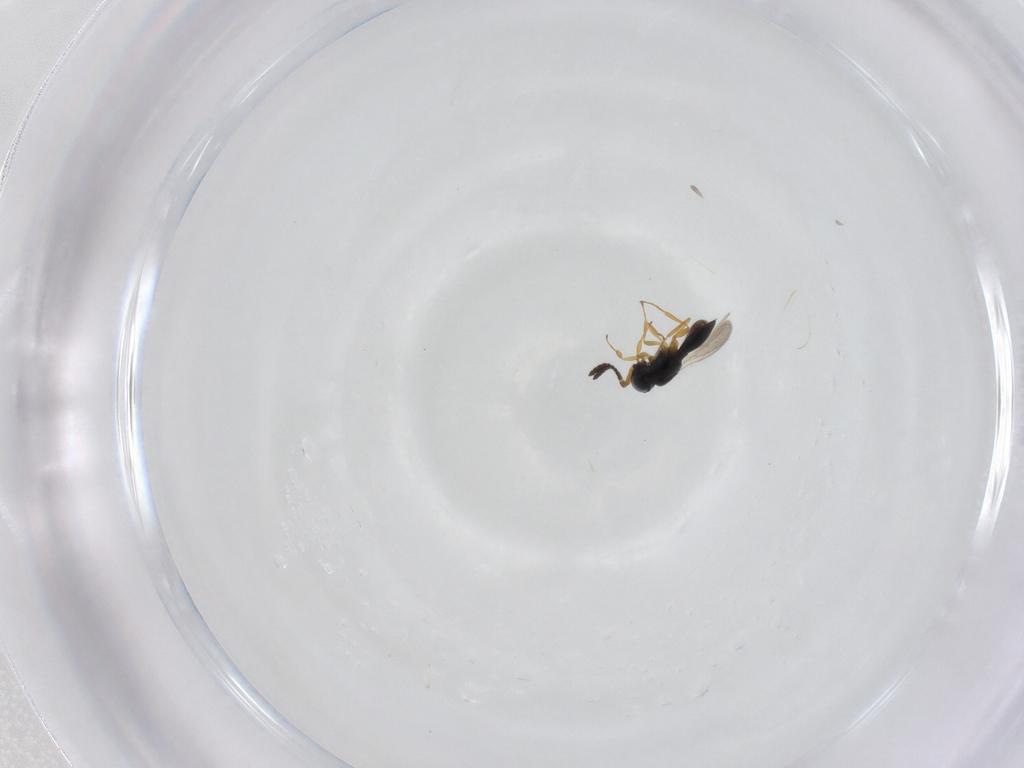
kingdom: Animalia
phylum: Arthropoda
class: Insecta
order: Hymenoptera
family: Scelionidae
